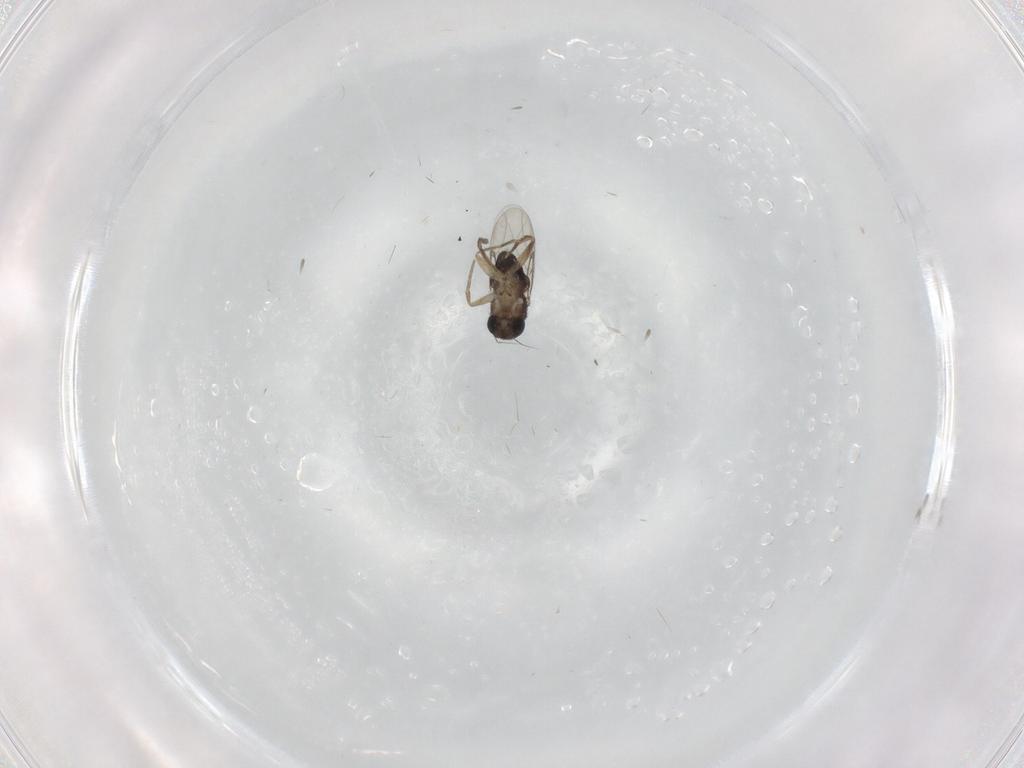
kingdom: Animalia
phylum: Arthropoda
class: Insecta
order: Diptera
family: Phoridae
